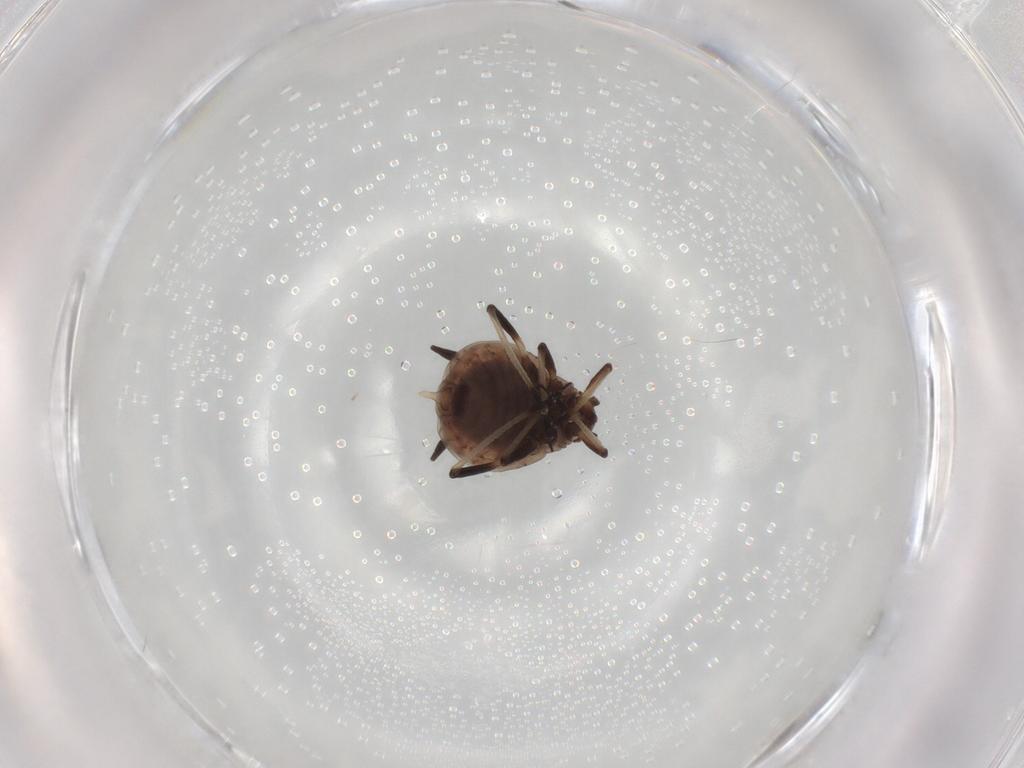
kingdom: Animalia
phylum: Arthropoda
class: Insecta
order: Hemiptera
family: Aphididae
